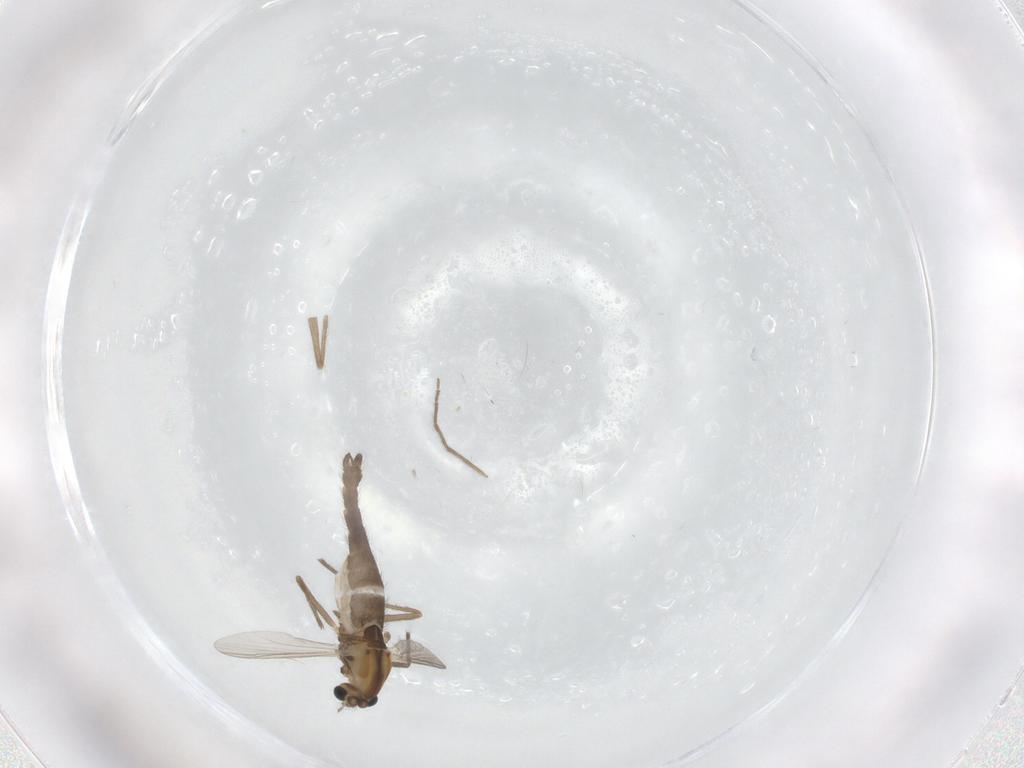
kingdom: Animalia
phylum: Arthropoda
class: Insecta
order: Diptera
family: Chironomidae
